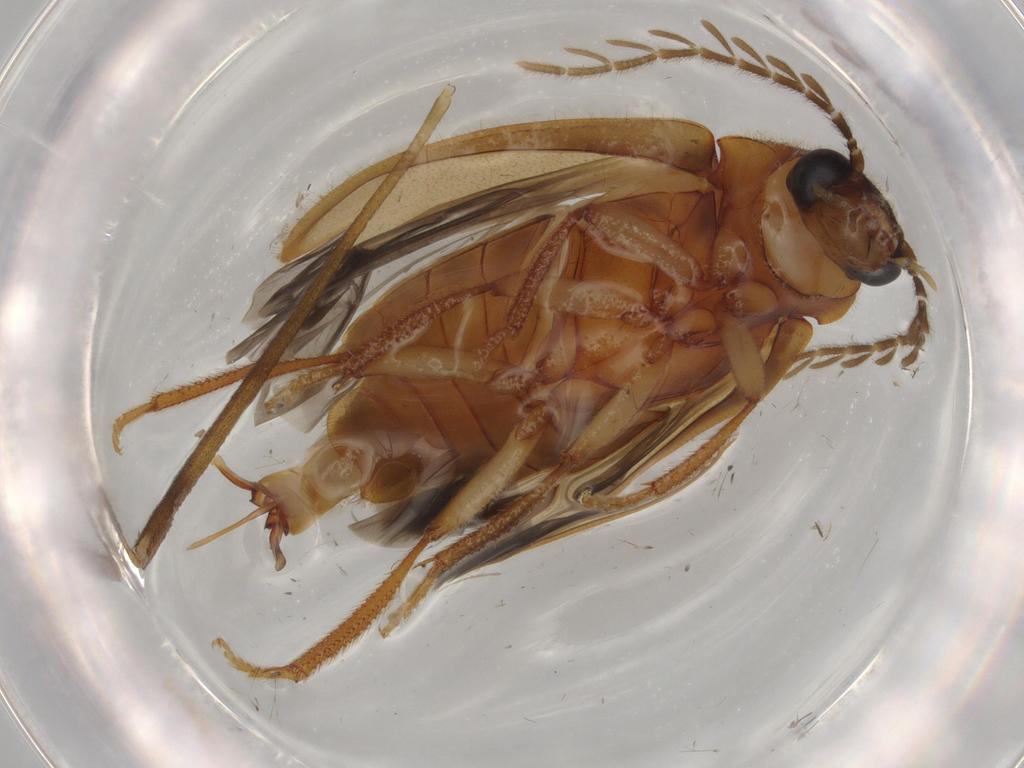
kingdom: Animalia
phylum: Arthropoda
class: Insecta
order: Coleoptera
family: Ptilodactylidae
